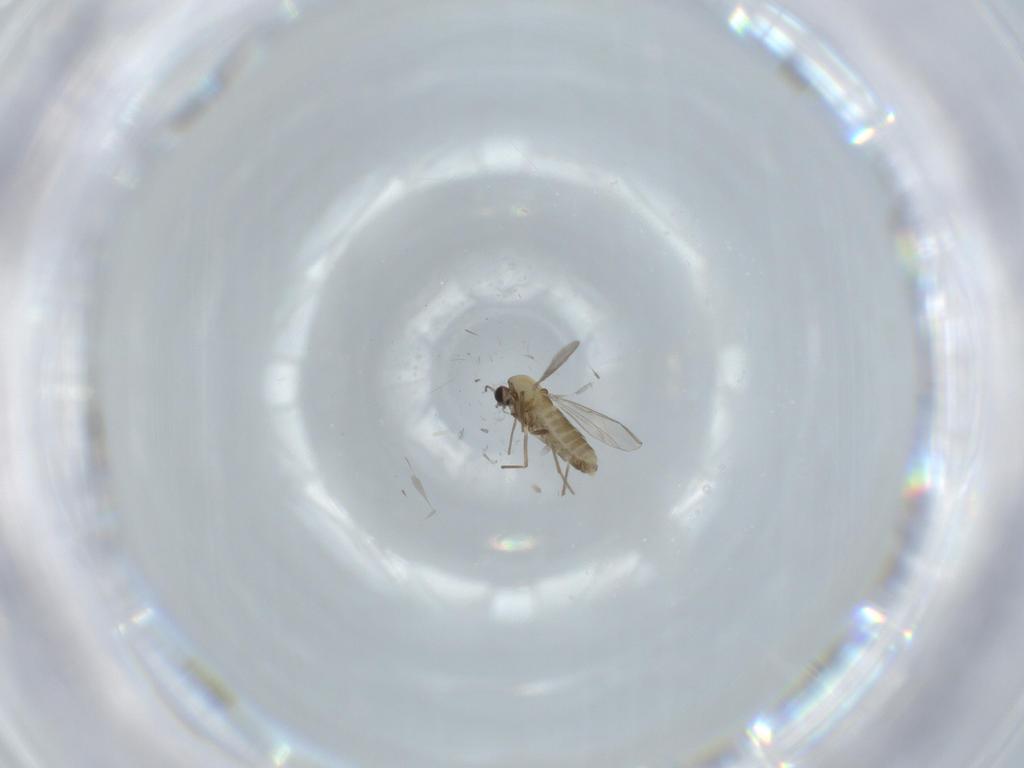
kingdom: Animalia
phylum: Arthropoda
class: Insecta
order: Diptera
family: Chironomidae
